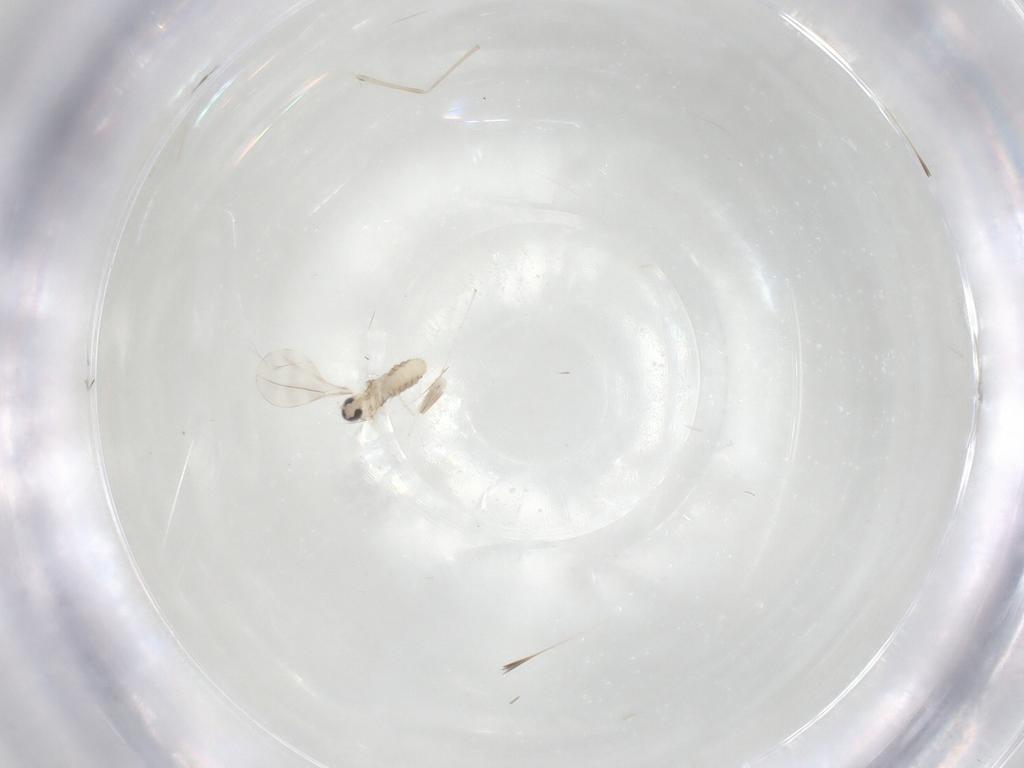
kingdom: Animalia
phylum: Arthropoda
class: Insecta
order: Diptera
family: Cecidomyiidae
